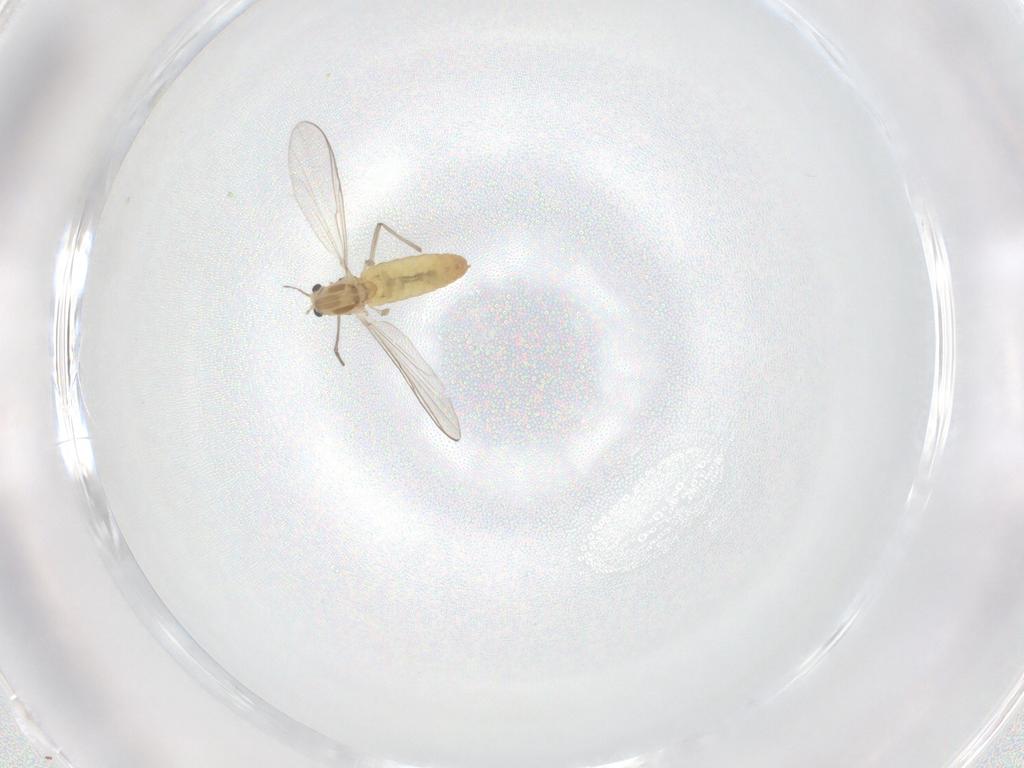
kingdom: Animalia
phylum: Arthropoda
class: Insecta
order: Diptera
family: Chironomidae
